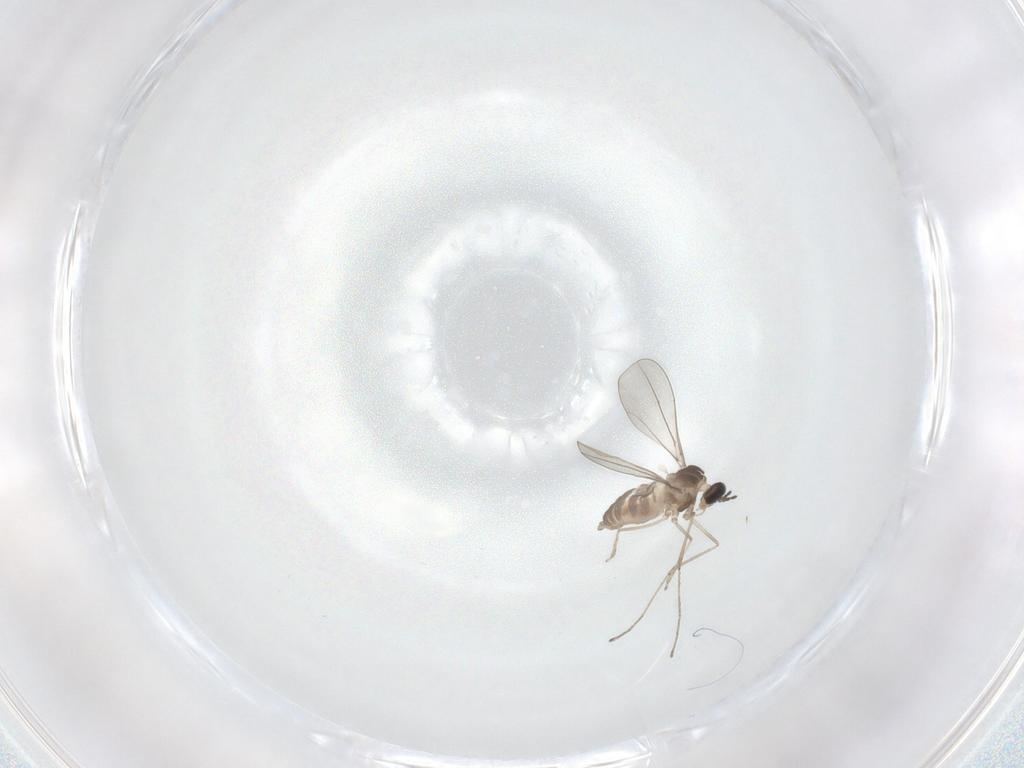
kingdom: Animalia
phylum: Arthropoda
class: Insecta
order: Diptera
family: Cecidomyiidae
